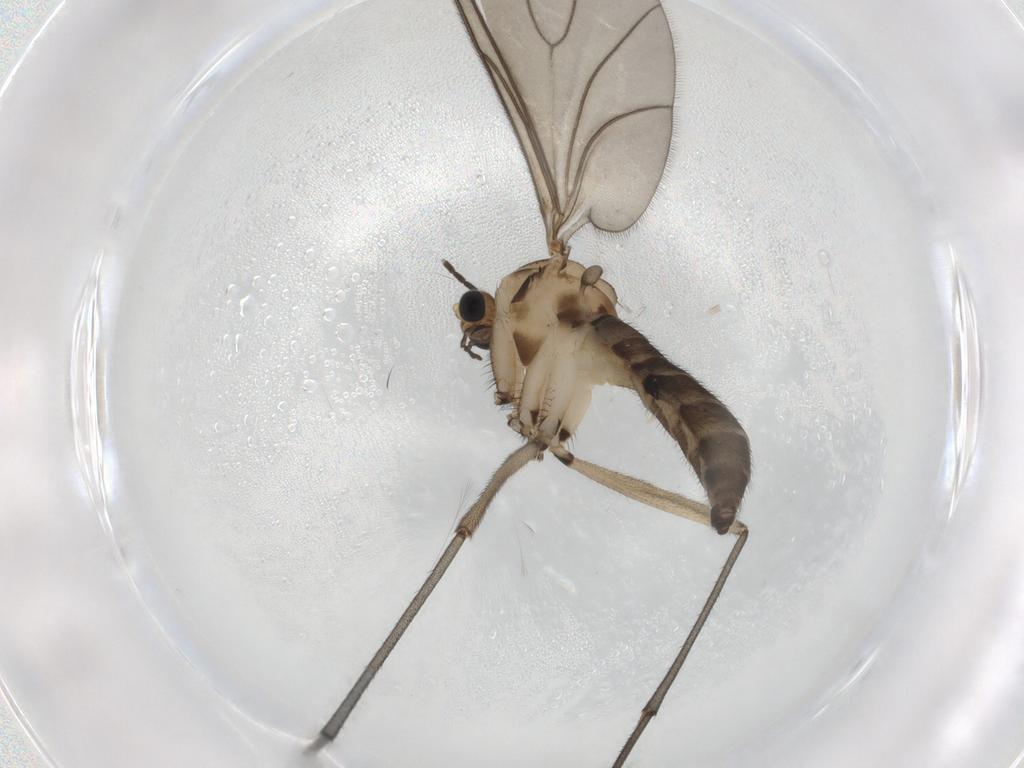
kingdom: Animalia
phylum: Arthropoda
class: Insecta
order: Diptera
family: Sciaridae
